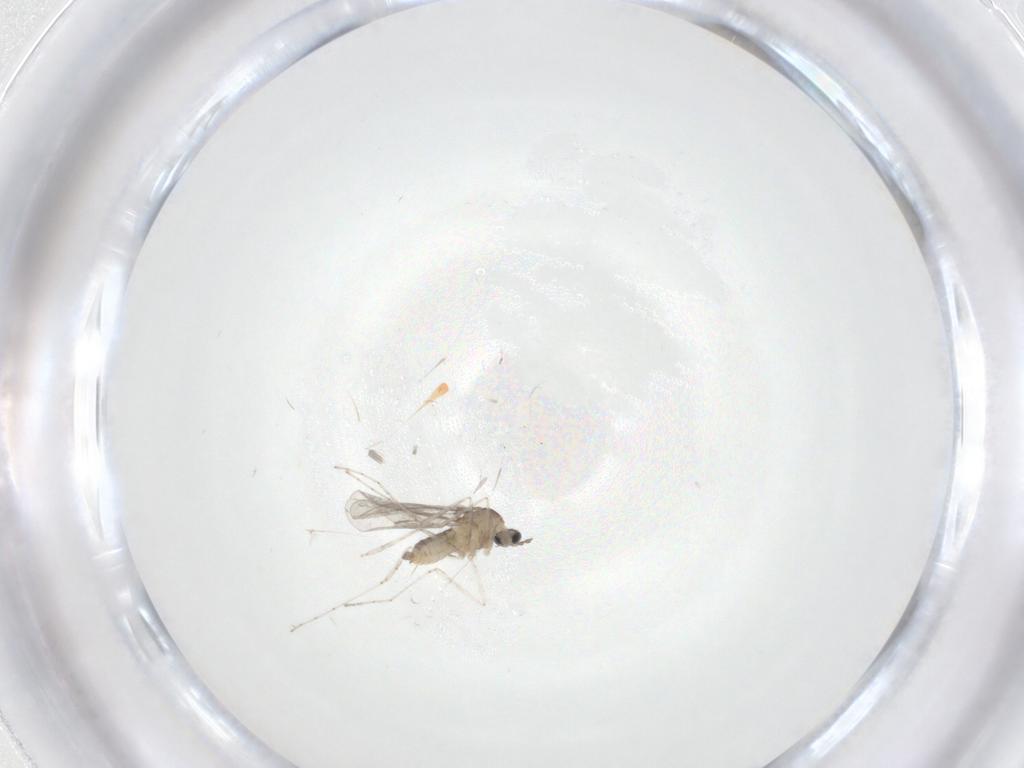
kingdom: Animalia
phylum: Arthropoda
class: Insecta
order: Diptera
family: Cecidomyiidae
